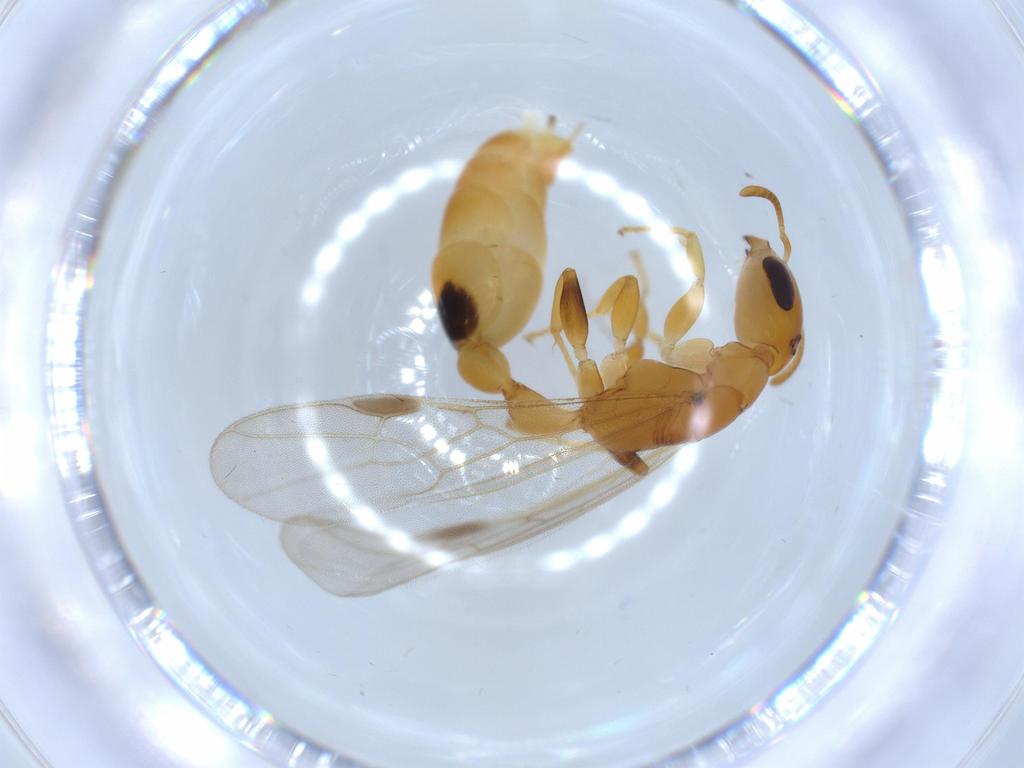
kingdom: Animalia
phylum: Arthropoda
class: Insecta
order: Hymenoptera
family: Formicidae
